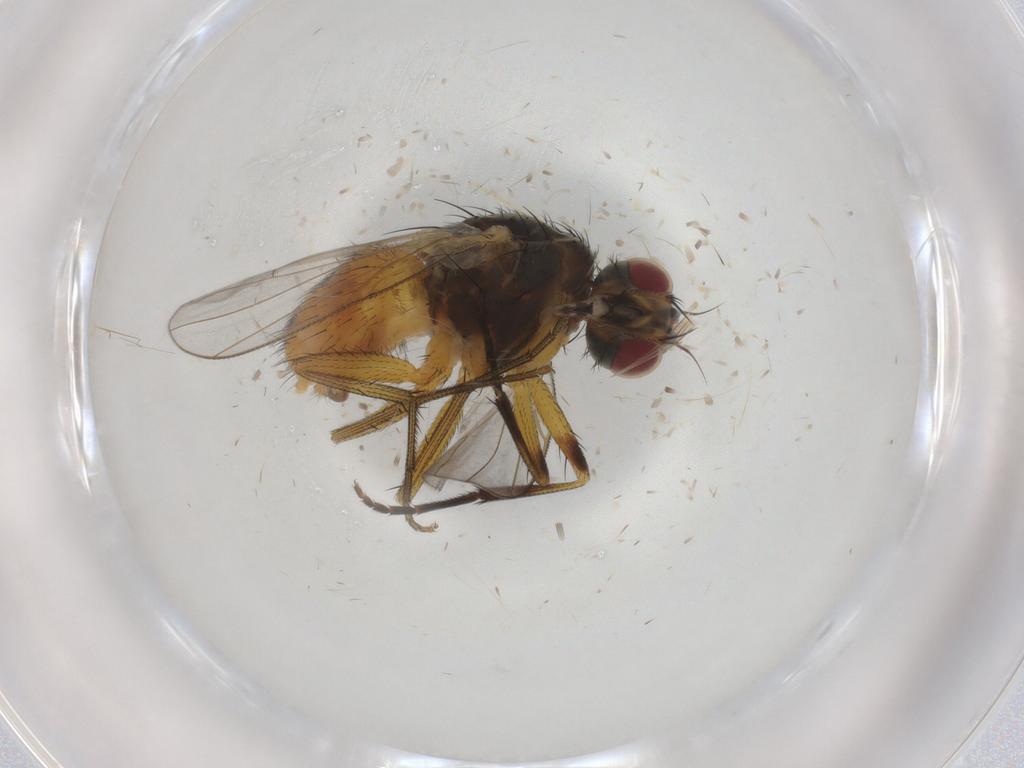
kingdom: Animalia
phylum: Arthropoda
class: Insecta
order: Diptera
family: Muscidae
